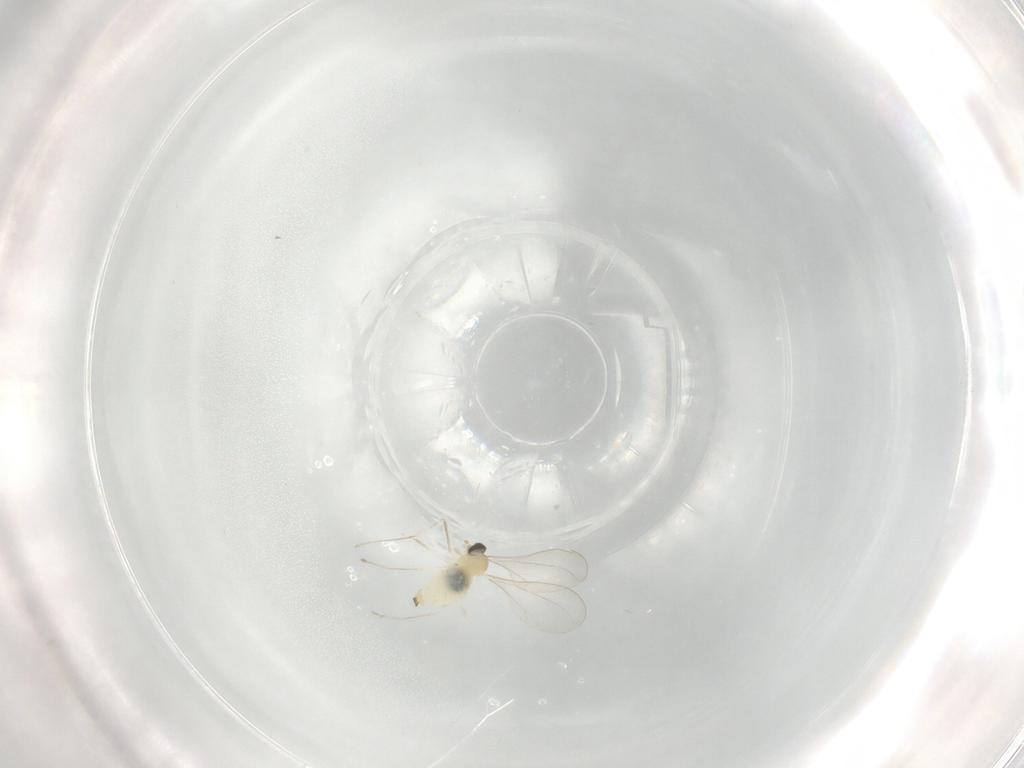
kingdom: Animalia
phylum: Arthropoda
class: Insecta
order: Diptera
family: Cecidomyiidae
